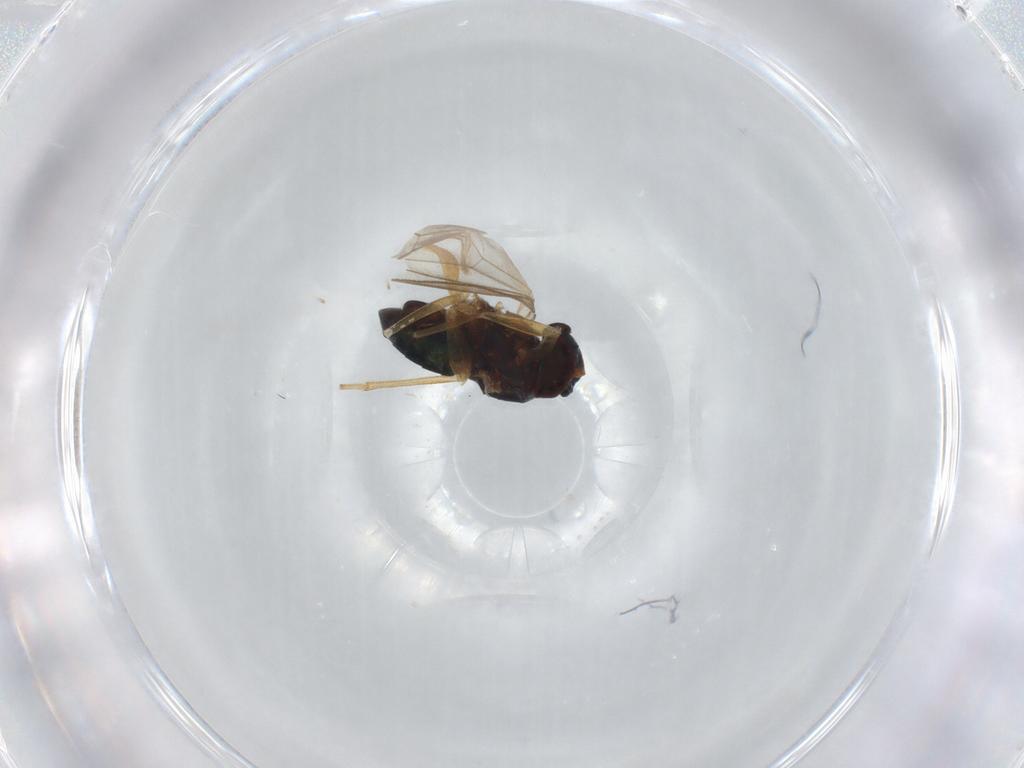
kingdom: Animalia
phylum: Arthropoda
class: Insecta
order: Diptera
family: Dolichopodidae
